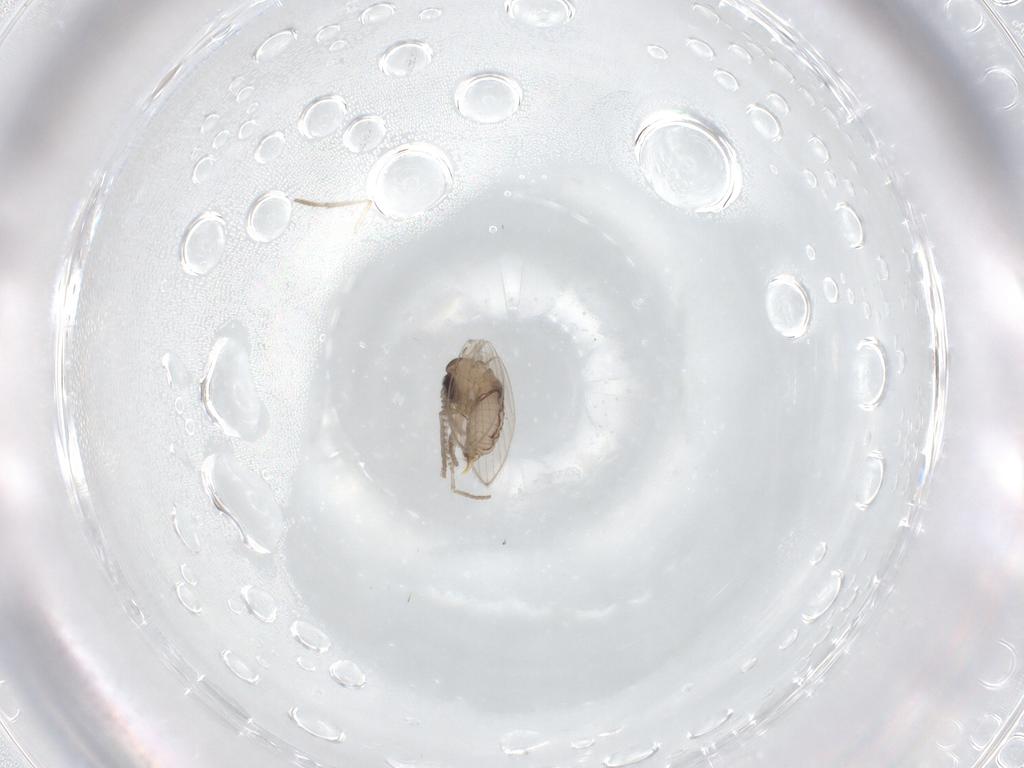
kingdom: Animalia
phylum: Arthropoda
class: Insecta
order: Diptera
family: Psychodidae
